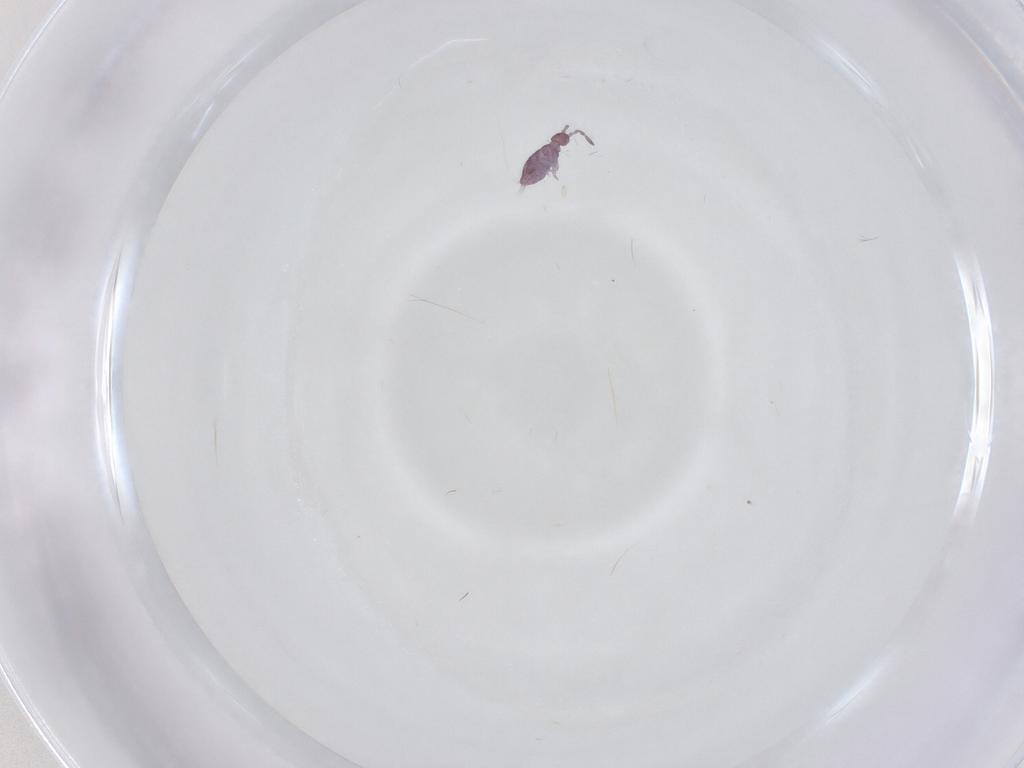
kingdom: Animalia
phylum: Arthropoda
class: Collembola
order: Entomobryomorpha
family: Entomobryidae
